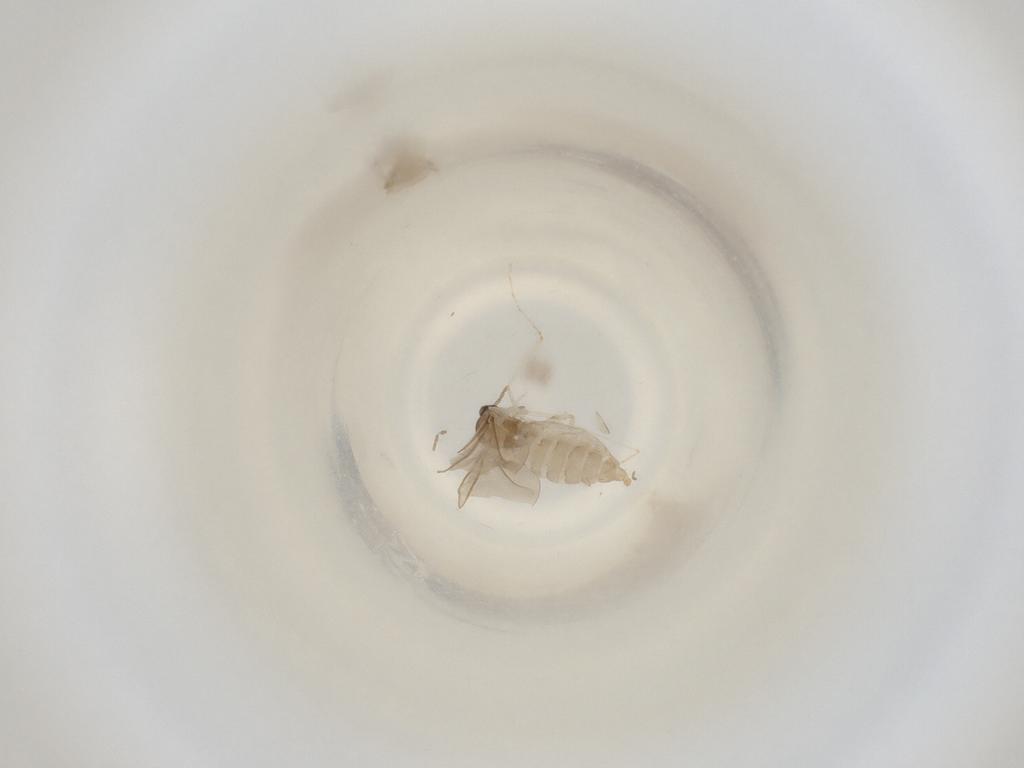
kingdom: Animalia
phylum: Arthropoda
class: Insecta
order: Diptera
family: Cecidomyiidae
